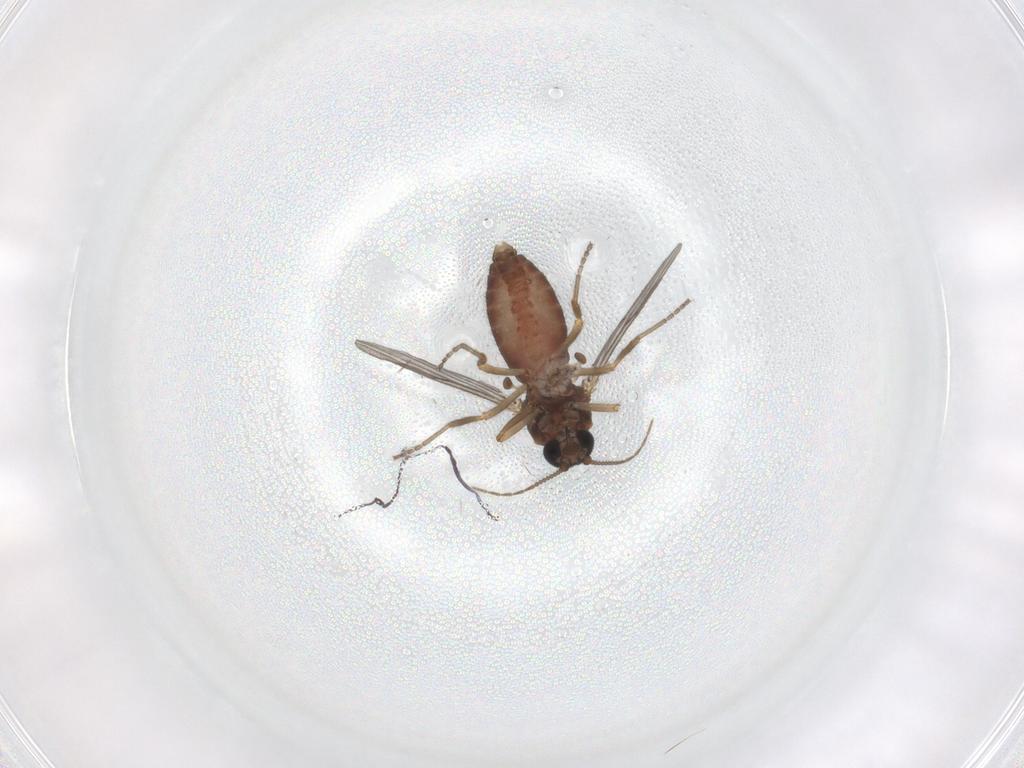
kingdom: Animalia
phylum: Arthropoda
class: Insecta
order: Diptera
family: Ceratopogonidae
